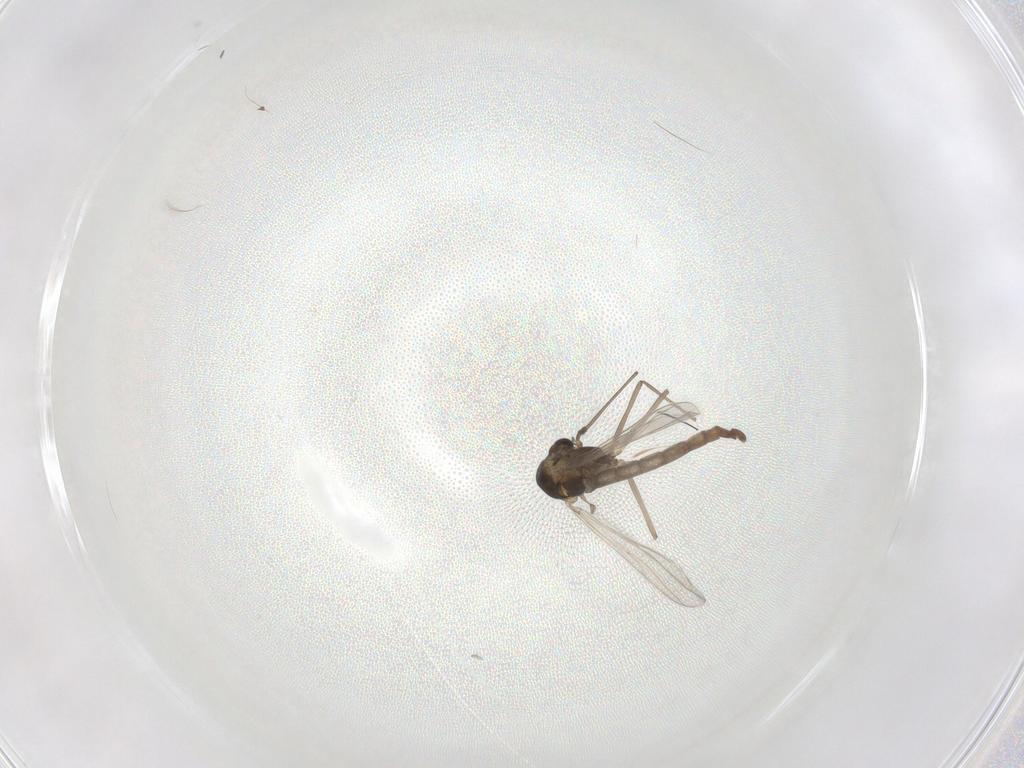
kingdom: Animalia
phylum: Arthropoda
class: Insecta
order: Diptera
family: Chironomidae
